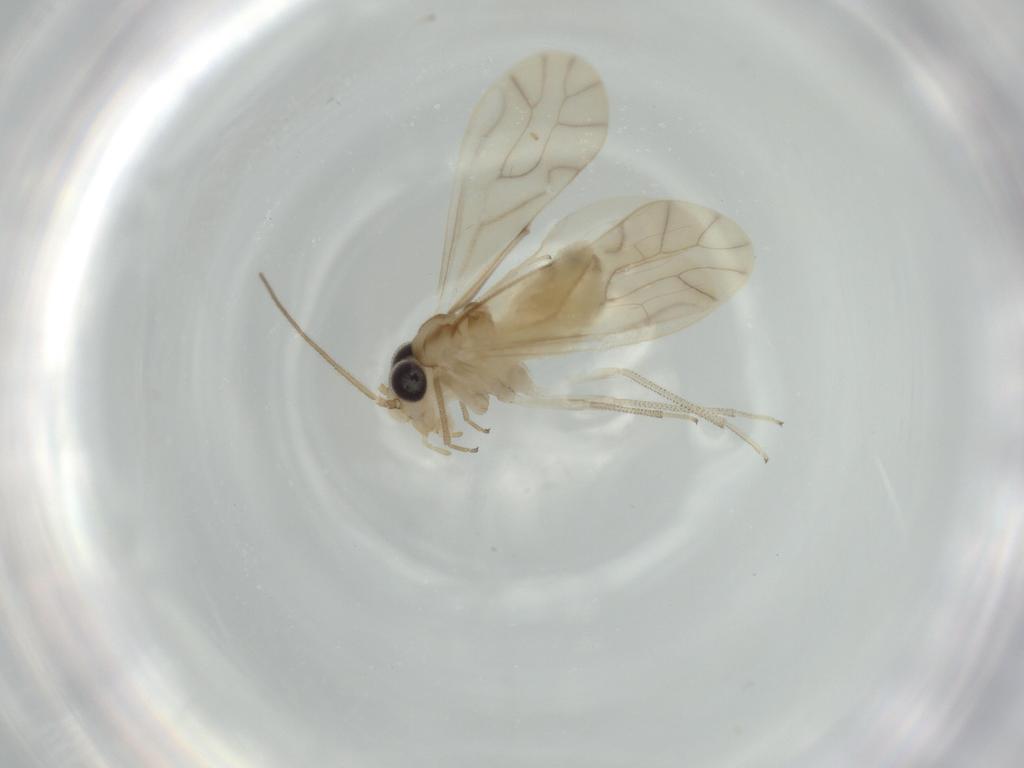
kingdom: Animalia
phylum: Arthropoda
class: Insecta
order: Psocodea
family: Caeciliusidae
